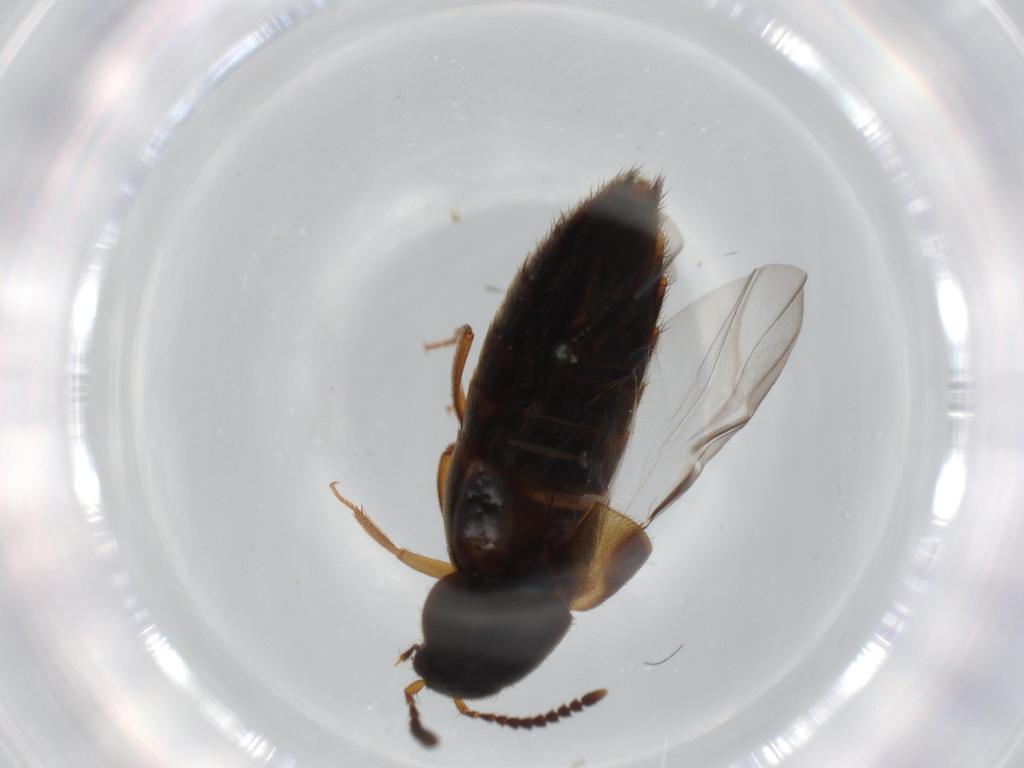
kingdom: Animalia
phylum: Arthropoda
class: Insecta
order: Coleoptera
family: Staphylinidae
